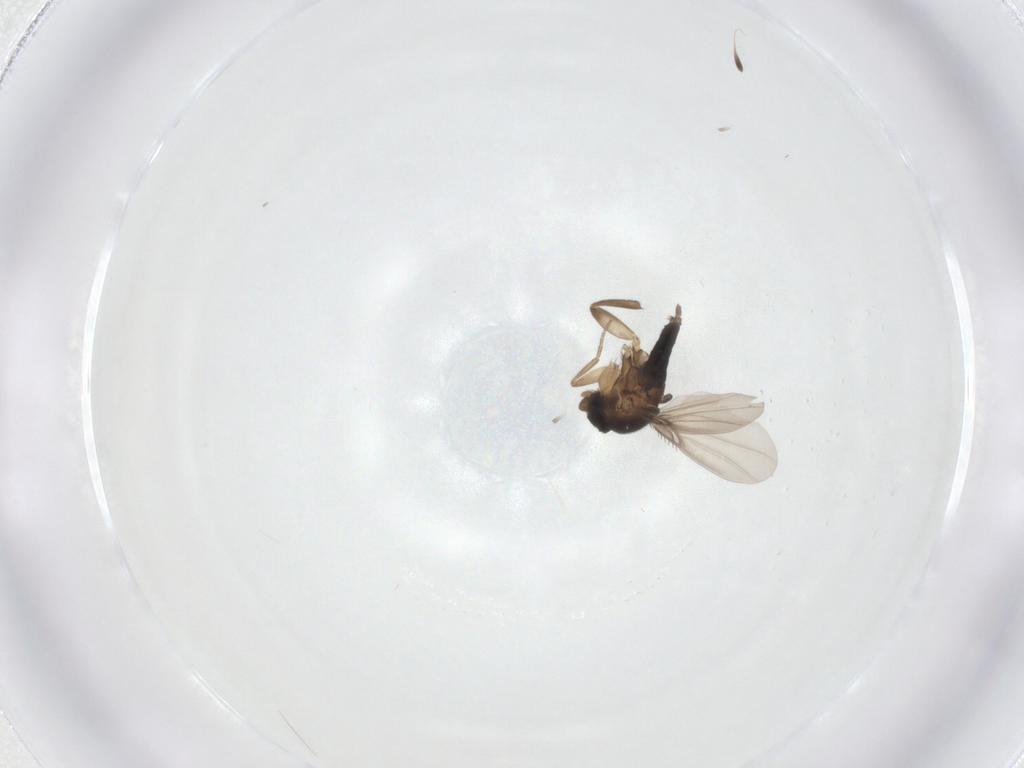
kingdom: Animalia
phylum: Arthropoda
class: Insecta
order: Diptera
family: Phoridae
